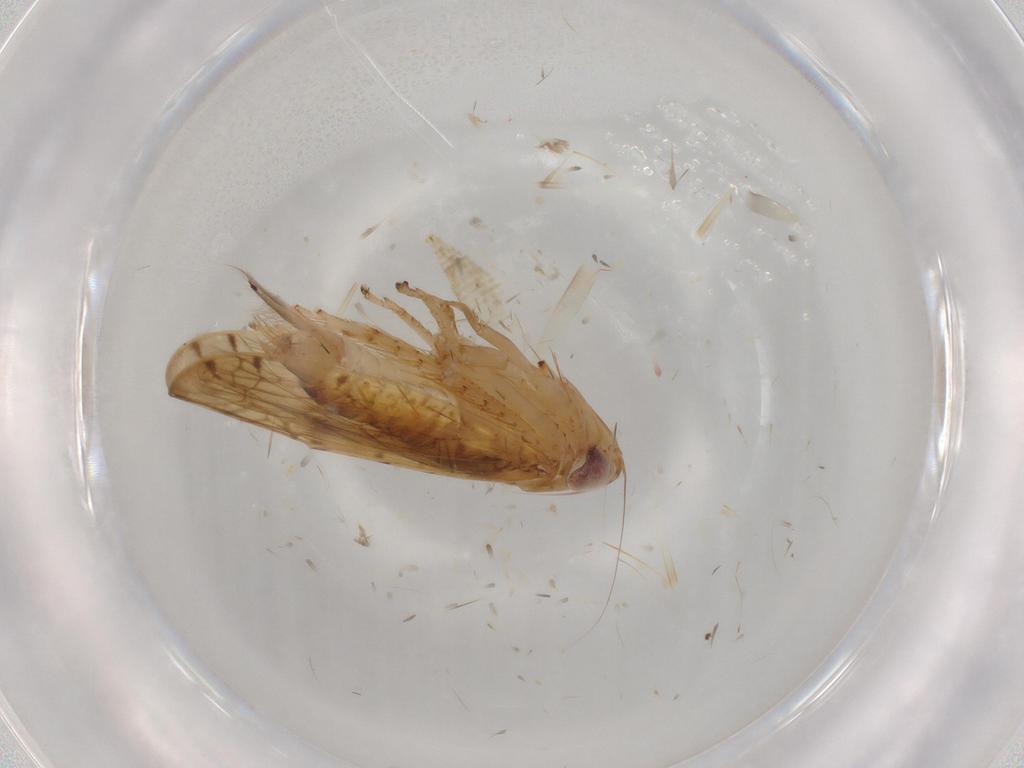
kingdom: Animalia
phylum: Arthropoda
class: Insecta
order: Hemiptera
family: Cicadellidae
